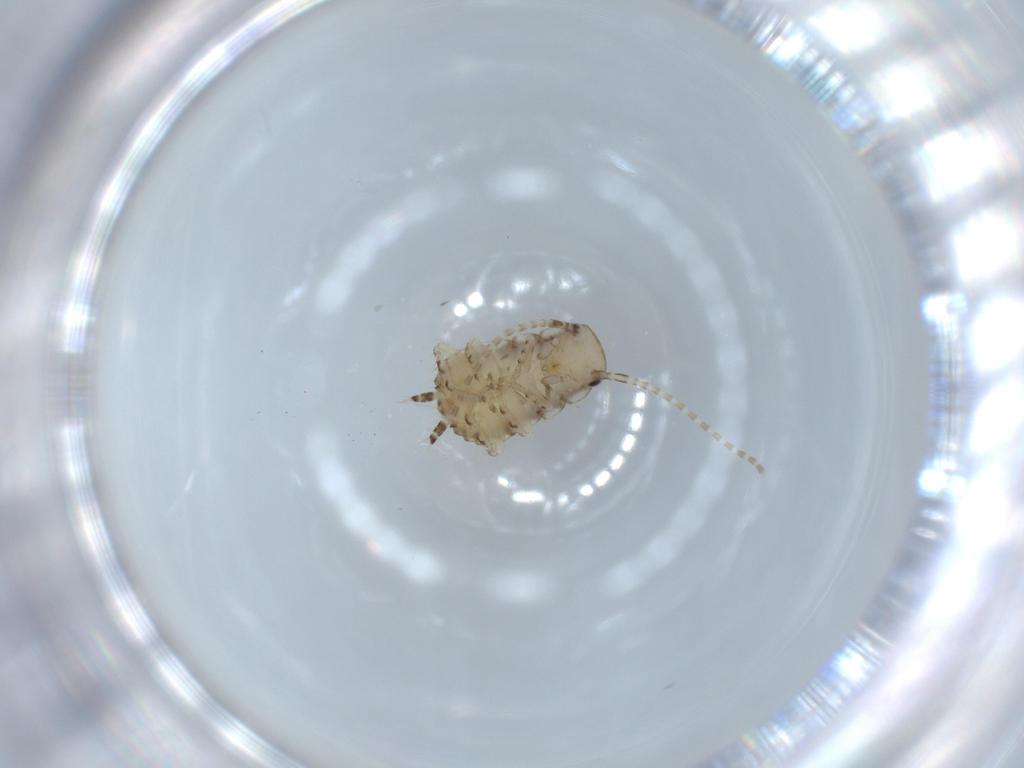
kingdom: Animalia
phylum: Arthropoda
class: Insecta
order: Blattodea
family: Ectobiidae
